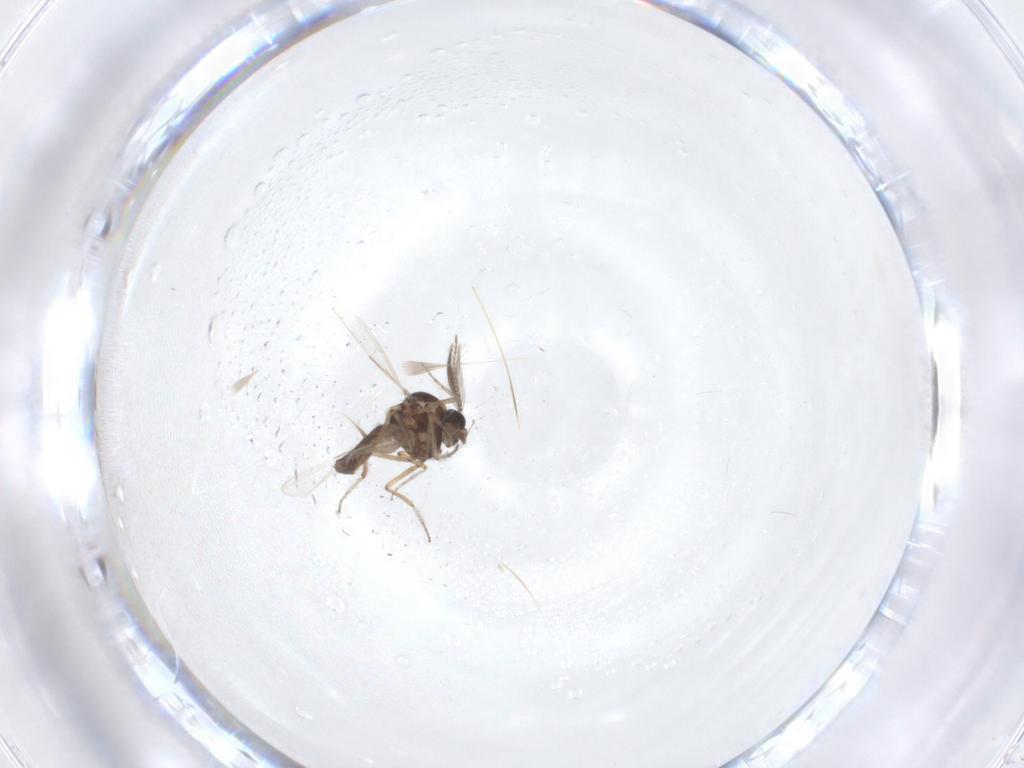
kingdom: Animalia
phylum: Arthropoda
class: Insecta
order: Diptera
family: Ceratopogonidae
